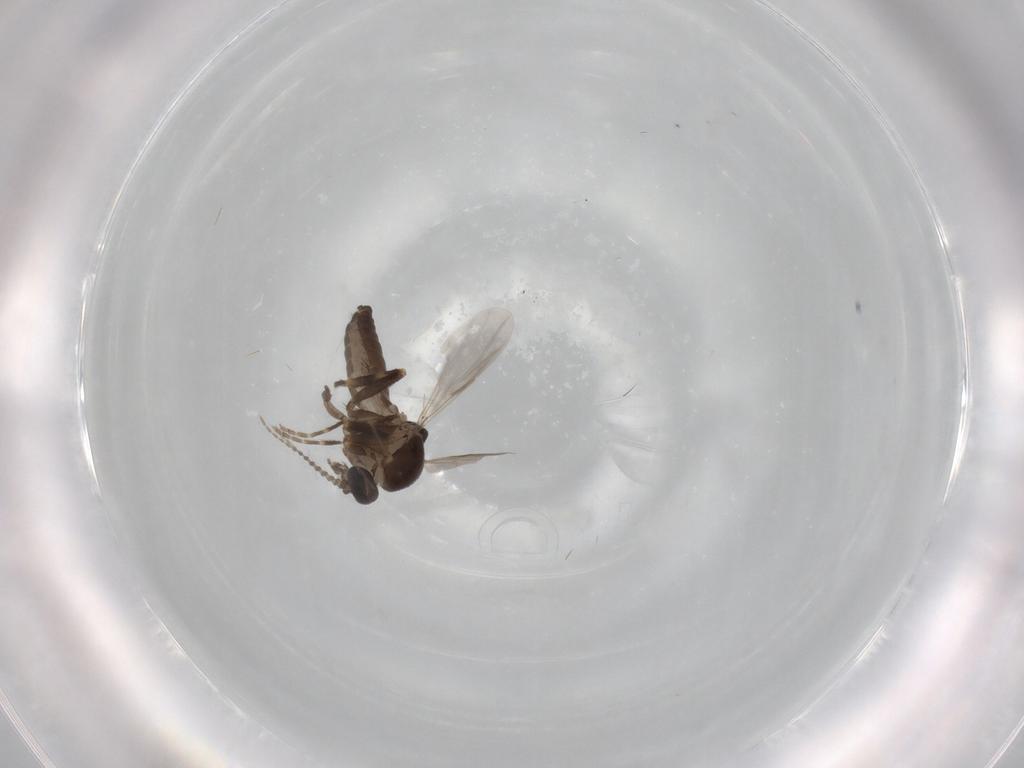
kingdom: Animalia
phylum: Arthropoda
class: Insecta
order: Diptera
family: Ceratopogonidae
